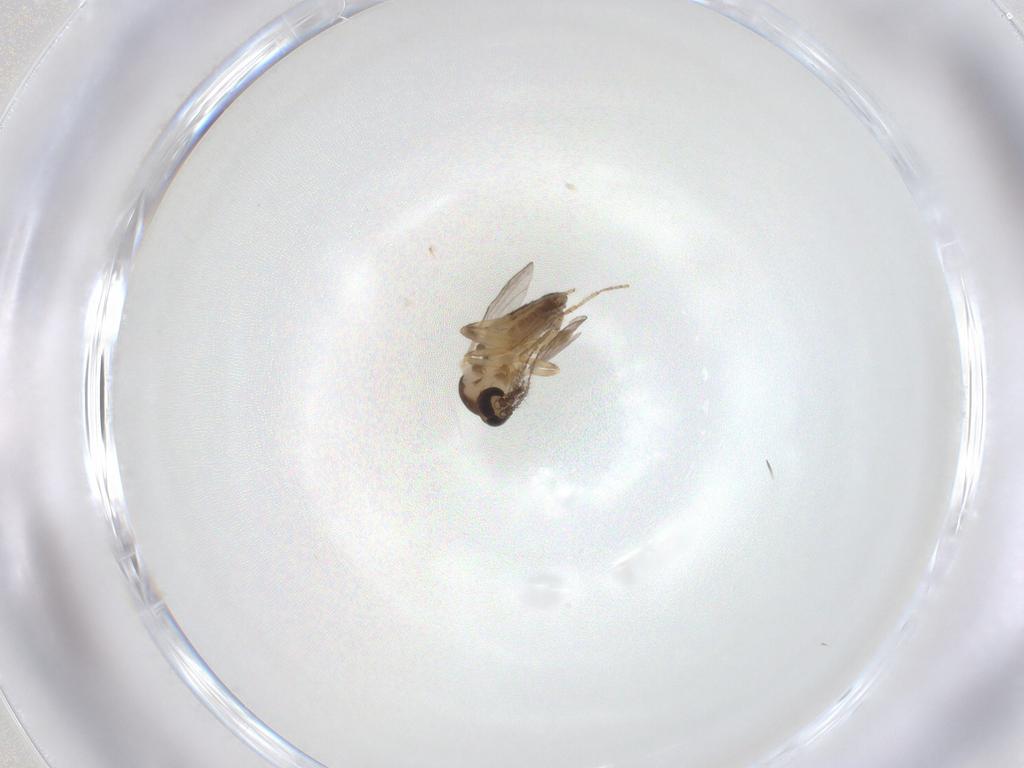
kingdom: Animalia
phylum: Arthropoda
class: Insecta
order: Diptera
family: Ceratopogonidae
